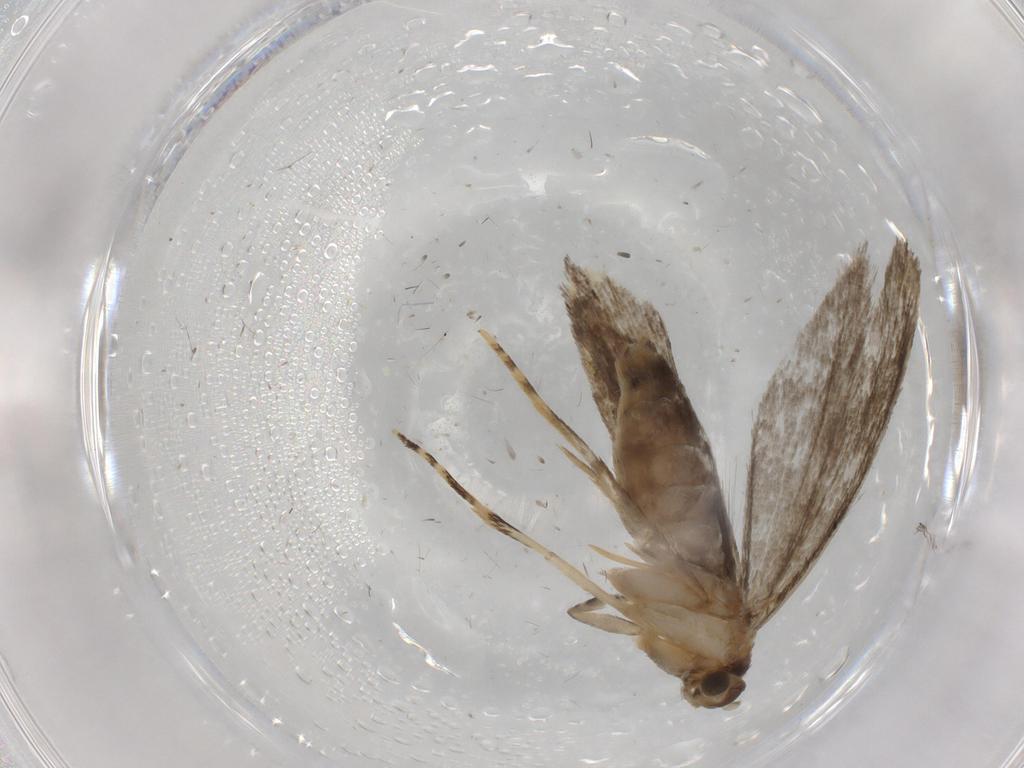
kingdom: Animalia
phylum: Arthropoda
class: Insecta
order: Lepidoptera
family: Tineidae
